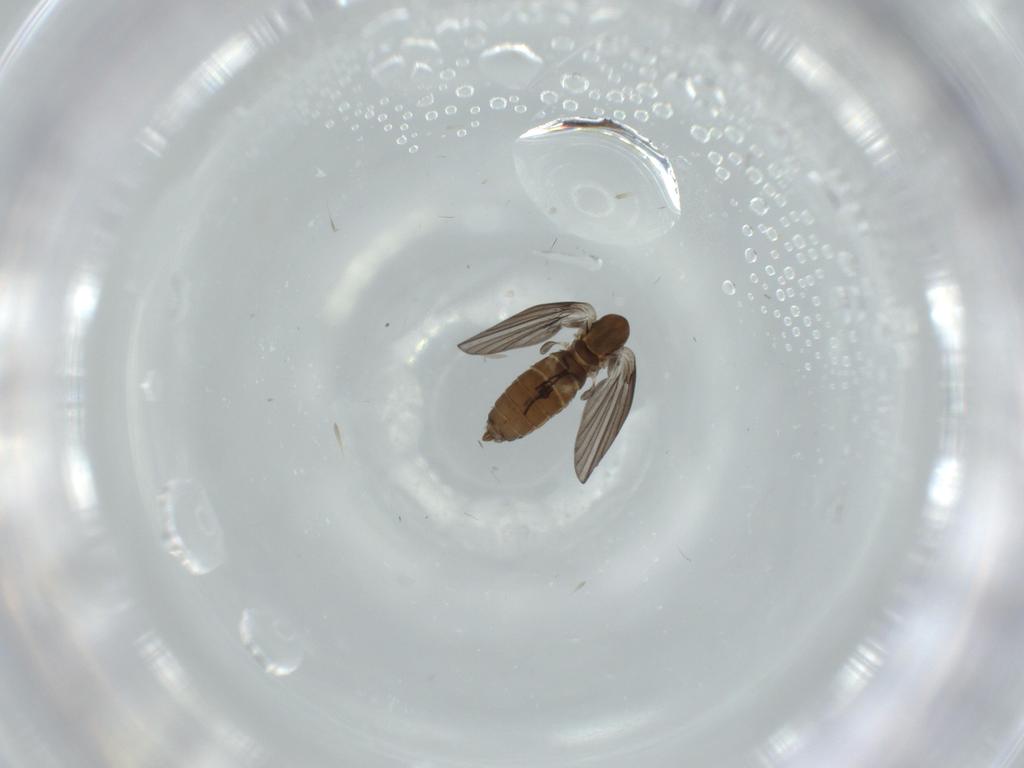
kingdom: Animalia
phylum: Arthropoda
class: Insecta
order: Diptera
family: Psychodidae
